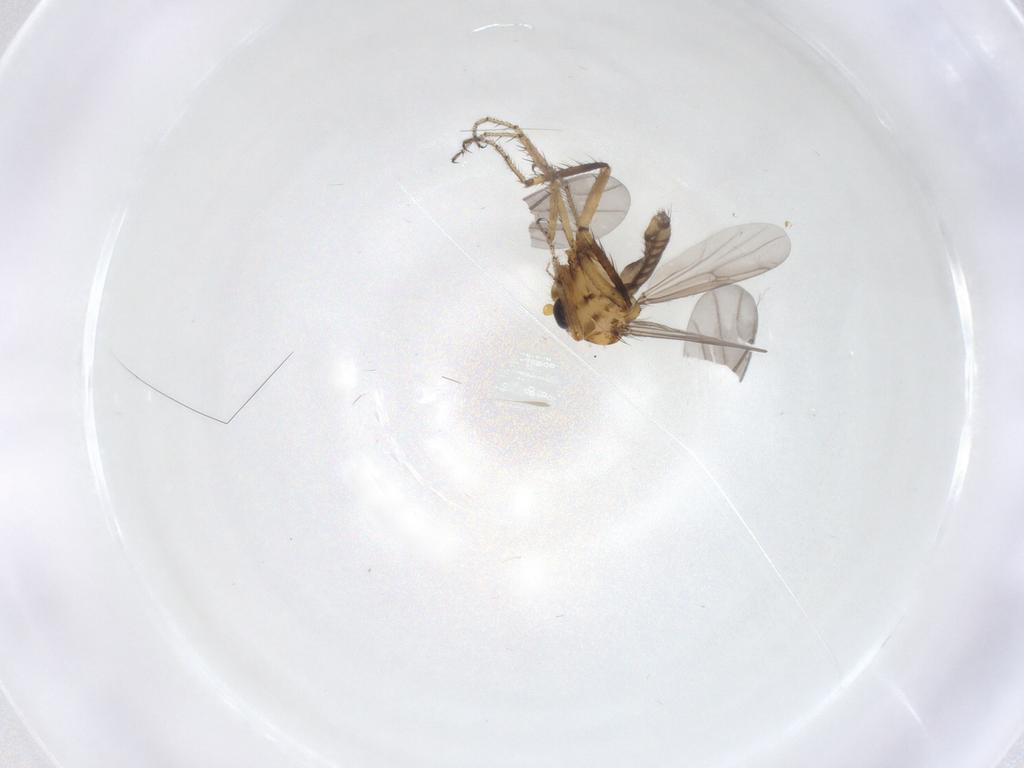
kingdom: Animalia
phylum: Arthropoda
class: Insecta
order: Diptera
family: Ceratopogonidae
